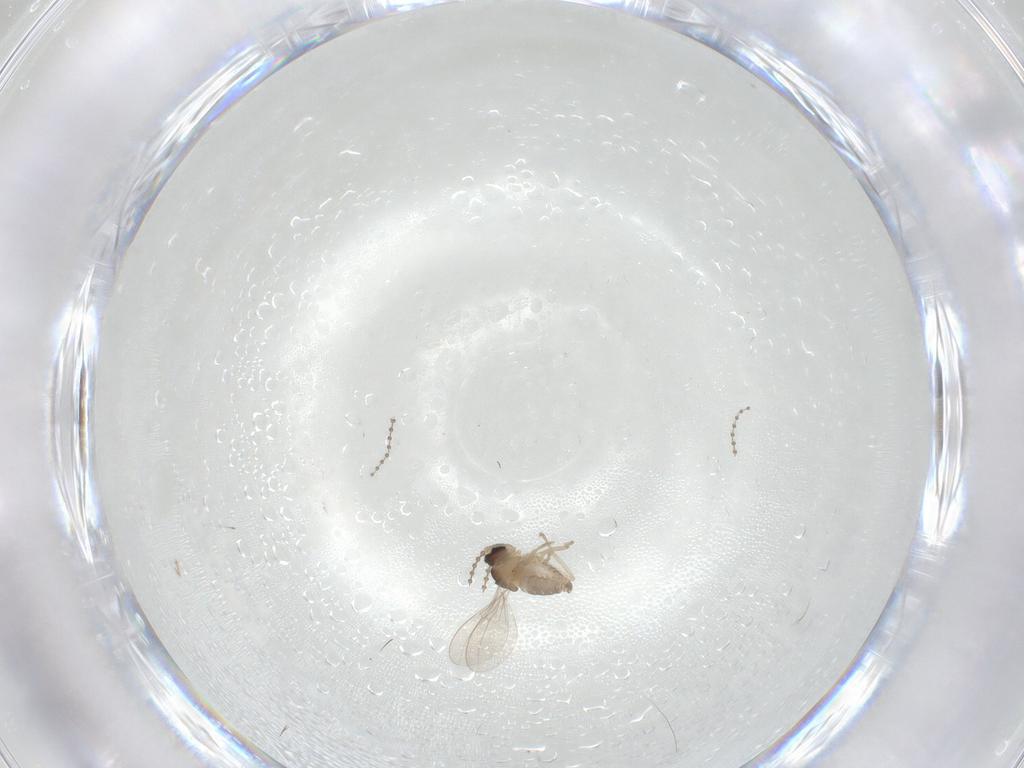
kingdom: Animalia
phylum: Arthropoda
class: Insecta
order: Diptera
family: Cecidomyiidae
